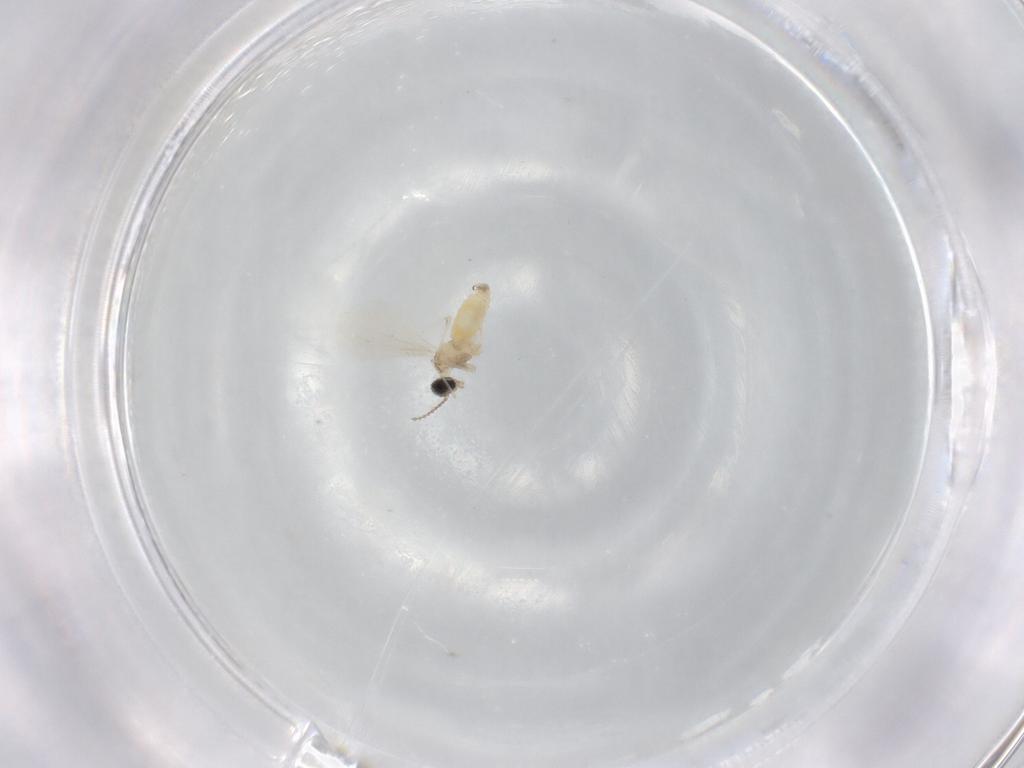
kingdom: Animalia
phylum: Arthropoda
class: Insecta
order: Diptera
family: Cecidomyiidae
